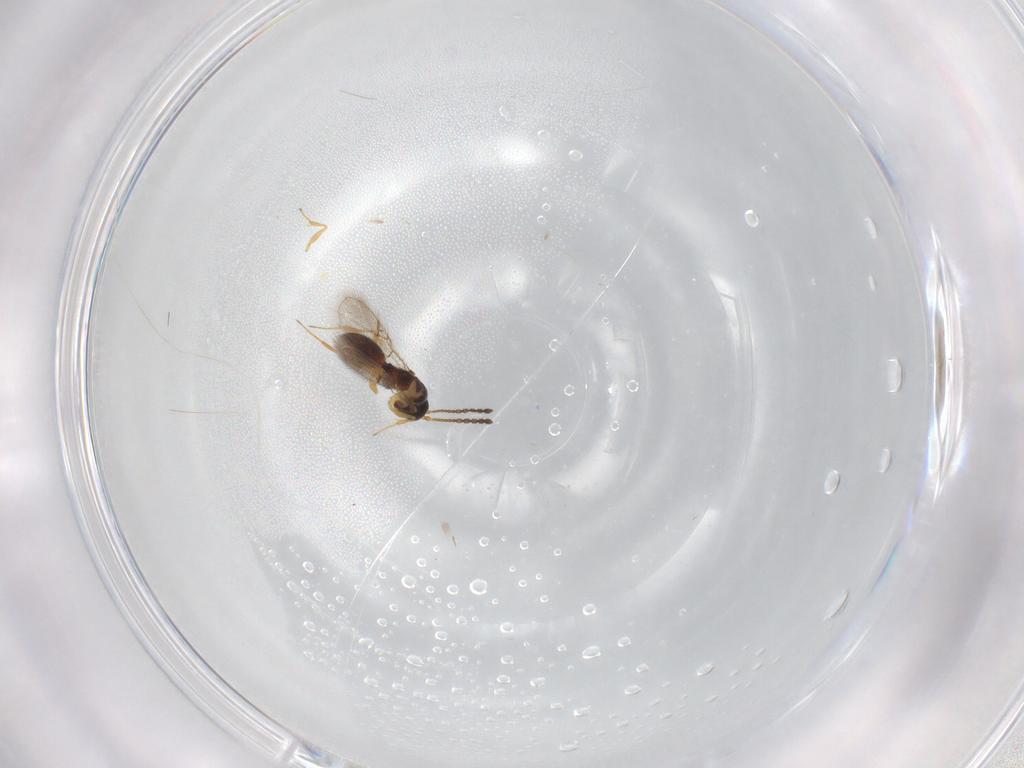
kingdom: Animalia
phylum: Arthropoda
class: Insecta
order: Hymenoptera
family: Braconidae
